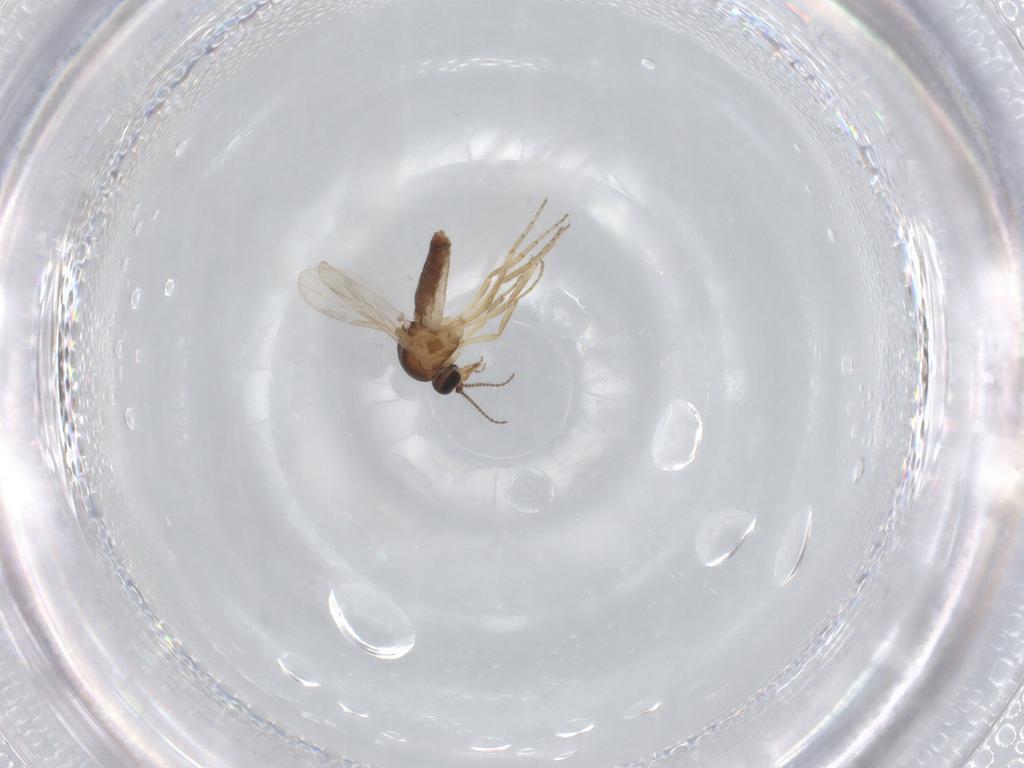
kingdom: Animalia
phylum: Arthropoda
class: Insecta
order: Diptera
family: Ceratopogonidae
